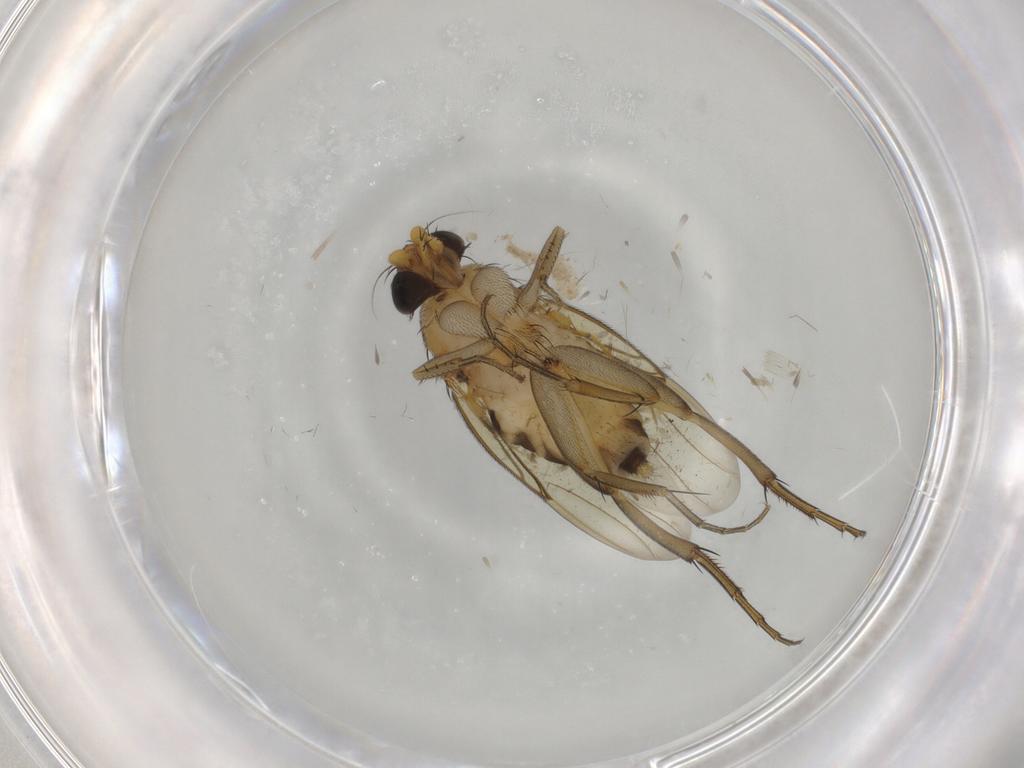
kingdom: Animalia
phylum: Arthropoda
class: Insecta
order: Diptera
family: Cecidomyiidae
